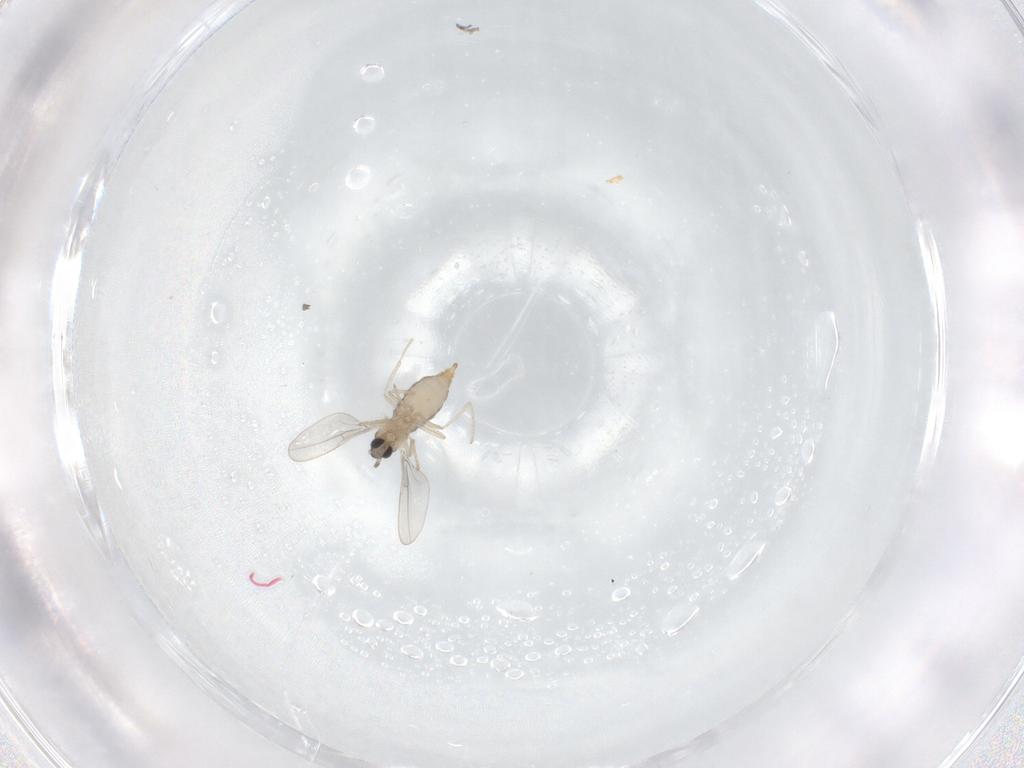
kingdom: Animalia
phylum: Arthropoda
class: Insecta
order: Diptera
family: Cecidomyiidae
